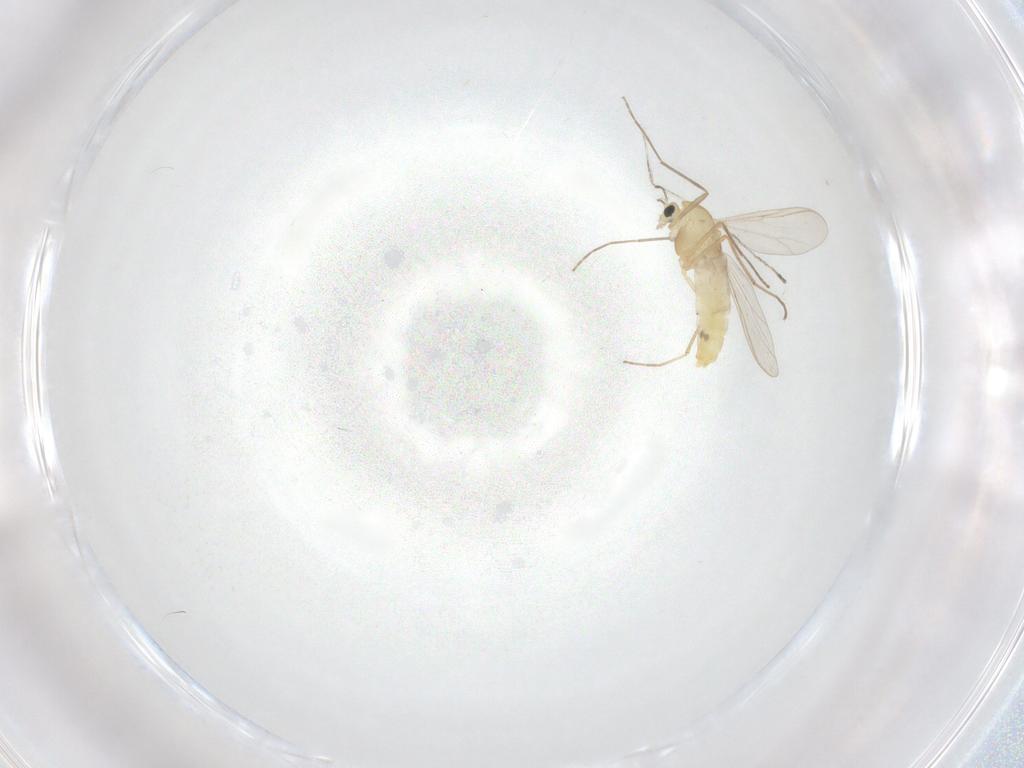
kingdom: Animalia
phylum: Arthropoda
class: Insecta
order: Diptera
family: Chironomidae
